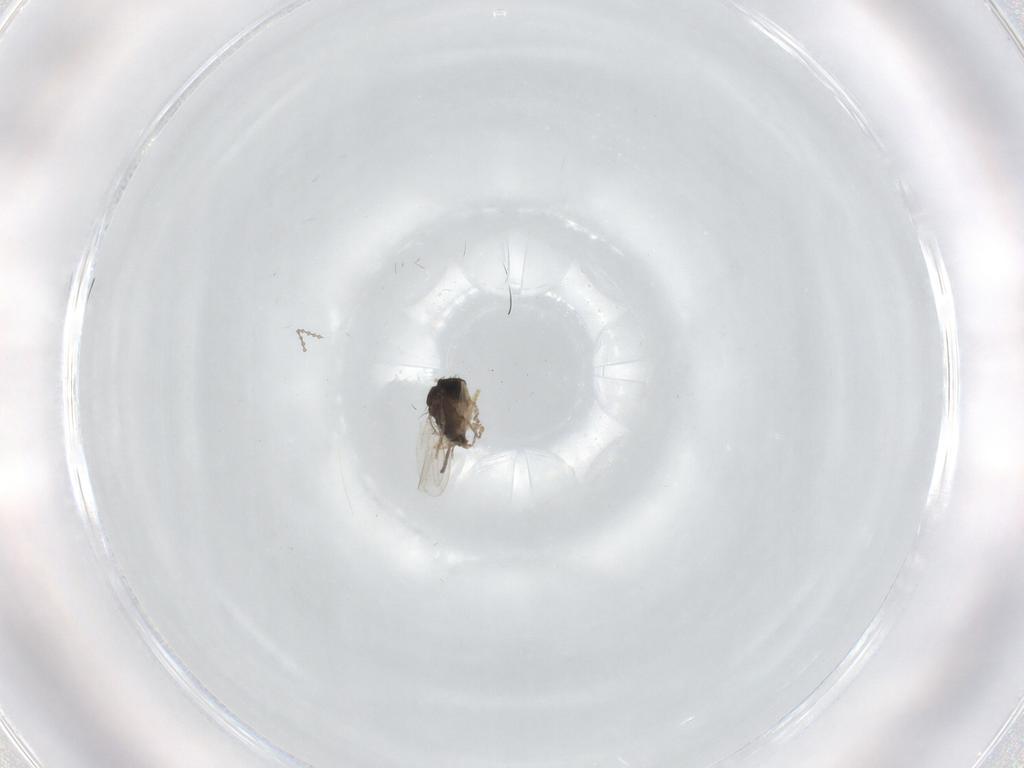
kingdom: Animalia
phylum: Arthropoda
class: Insecta
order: Diptera
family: Phoridae
